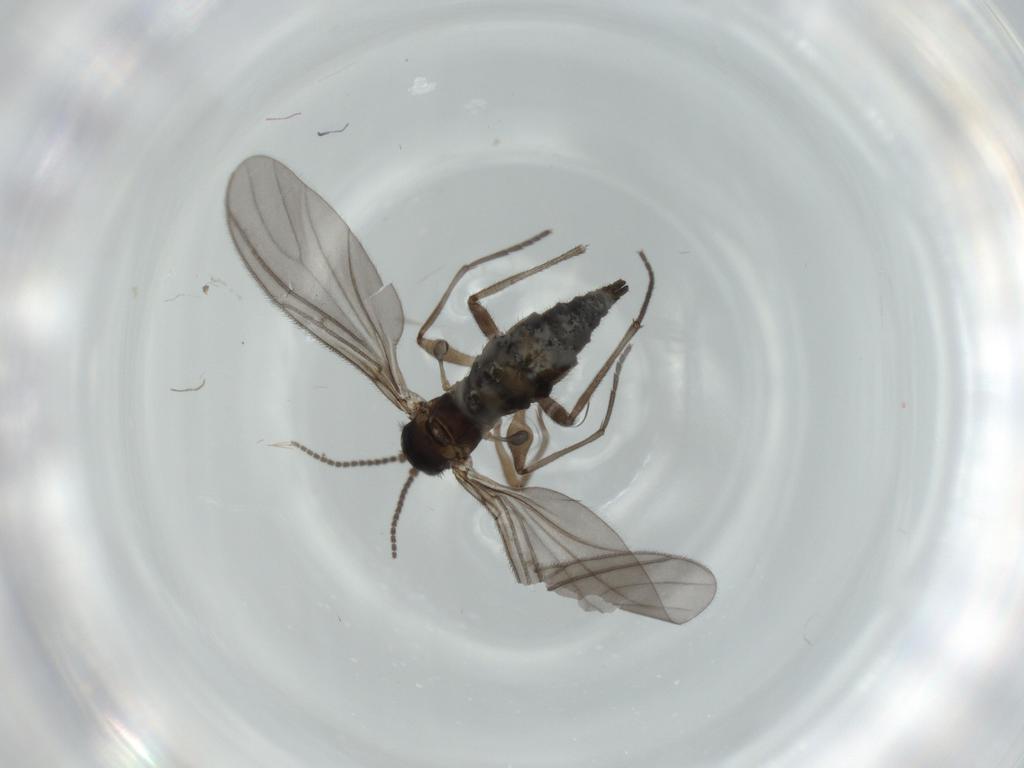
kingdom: Animalia
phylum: Arthropoda
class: Insecta
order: Diptera
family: Sciaridae
